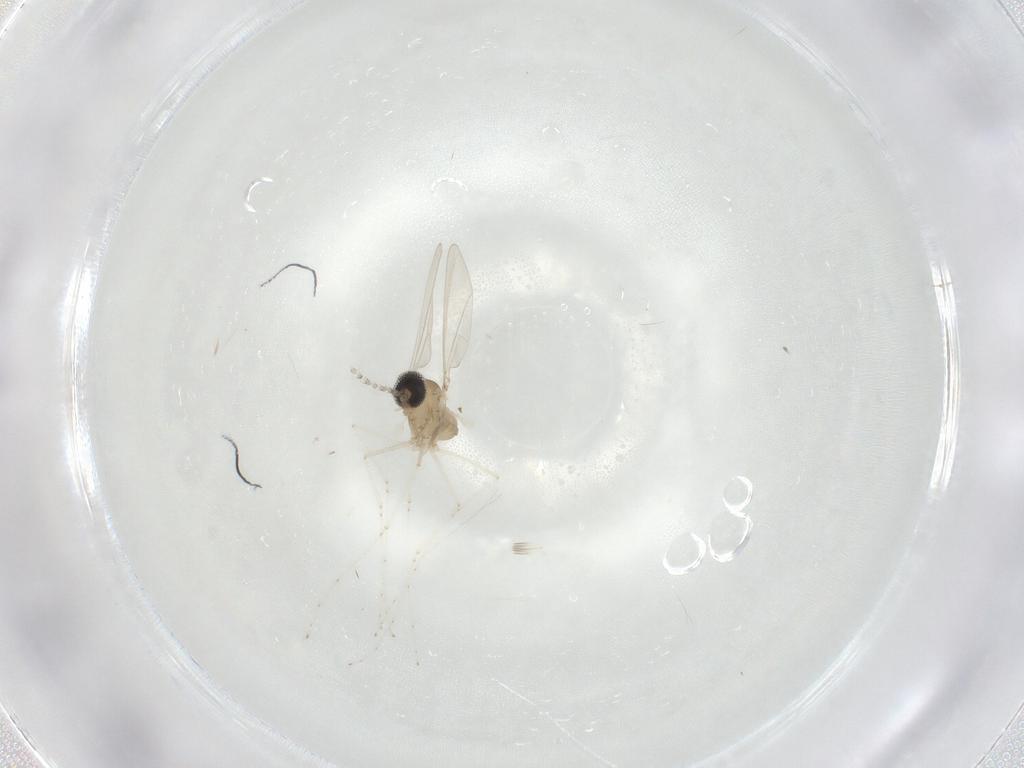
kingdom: Animalia
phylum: Arthropoda
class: Insecta
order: Diptera
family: Cecidomyiidae
